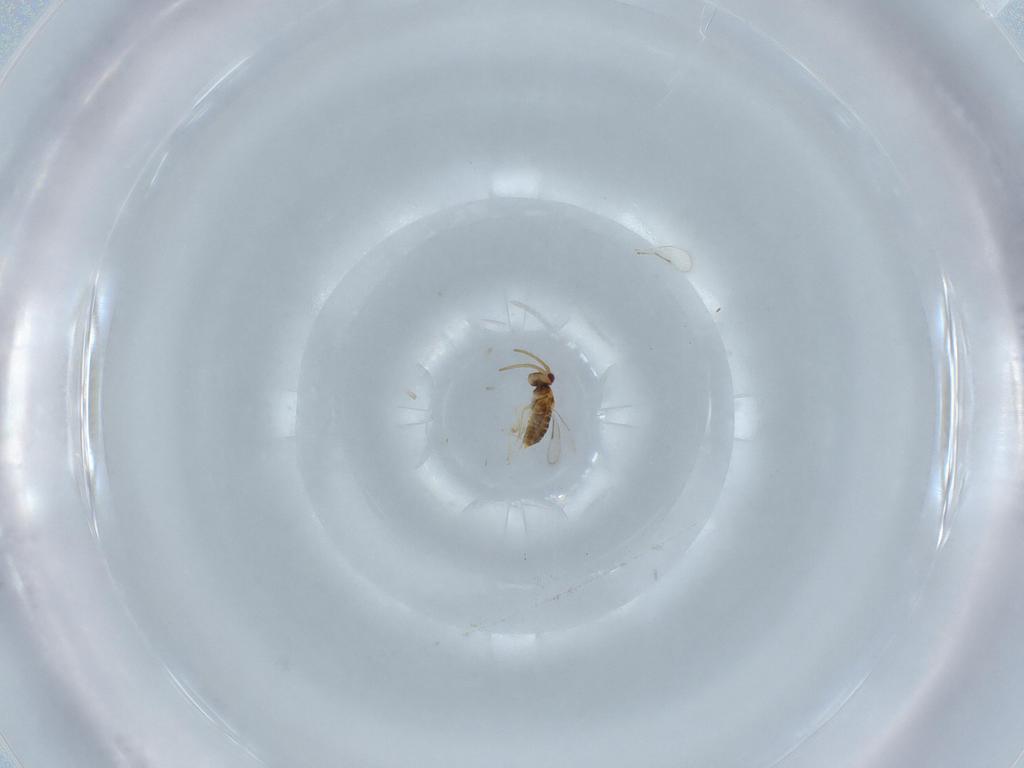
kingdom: Animalia
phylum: Arthropoda
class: Insecta
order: Hymenoptera
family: Aphelinidae
